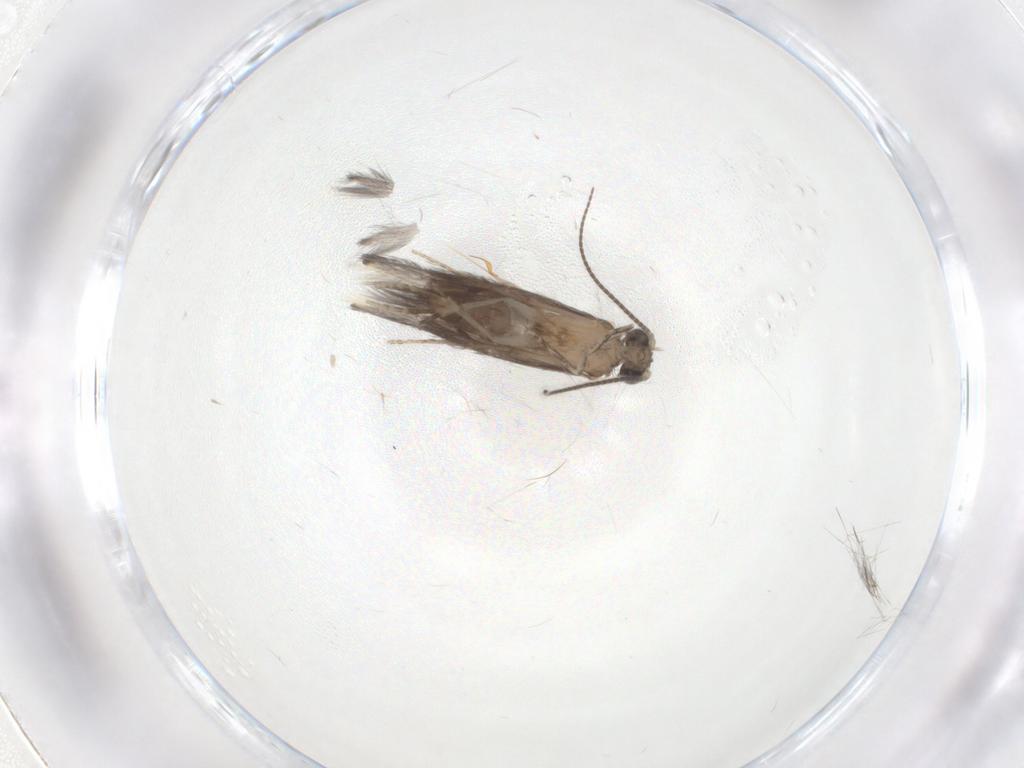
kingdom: Animalia
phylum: Arthropoda
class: Insecta
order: Trichoptera
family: Hydroptilidae
